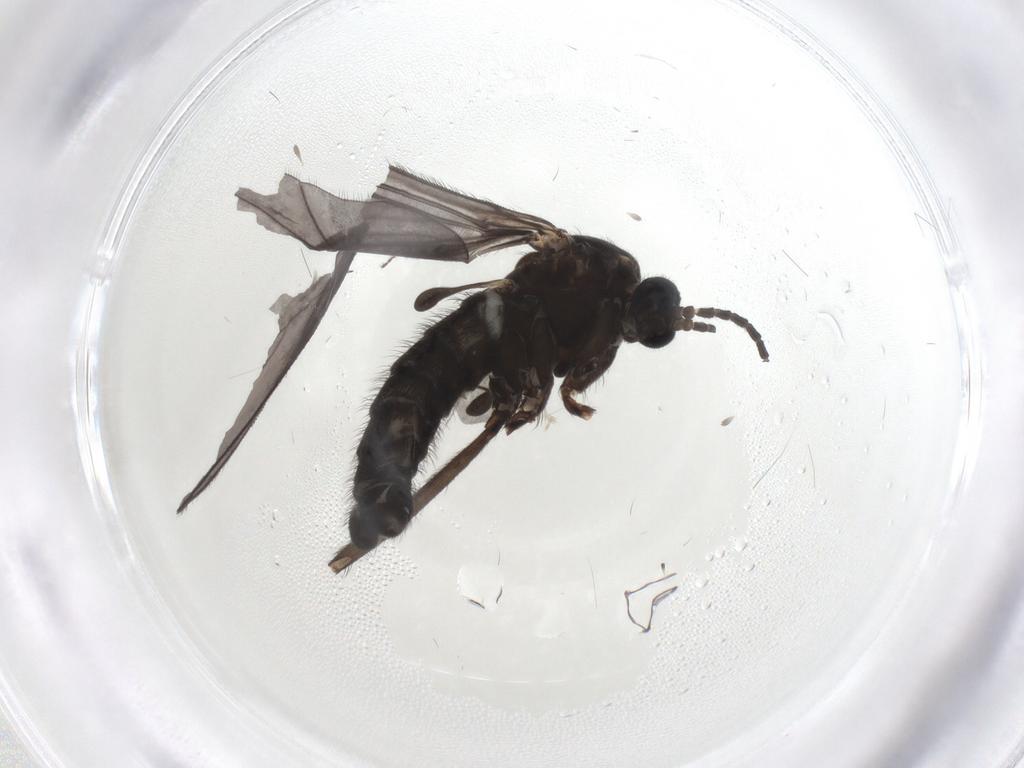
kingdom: Animalia
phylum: Arthropoda
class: Insecta
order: Diptera
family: Sciaridae
